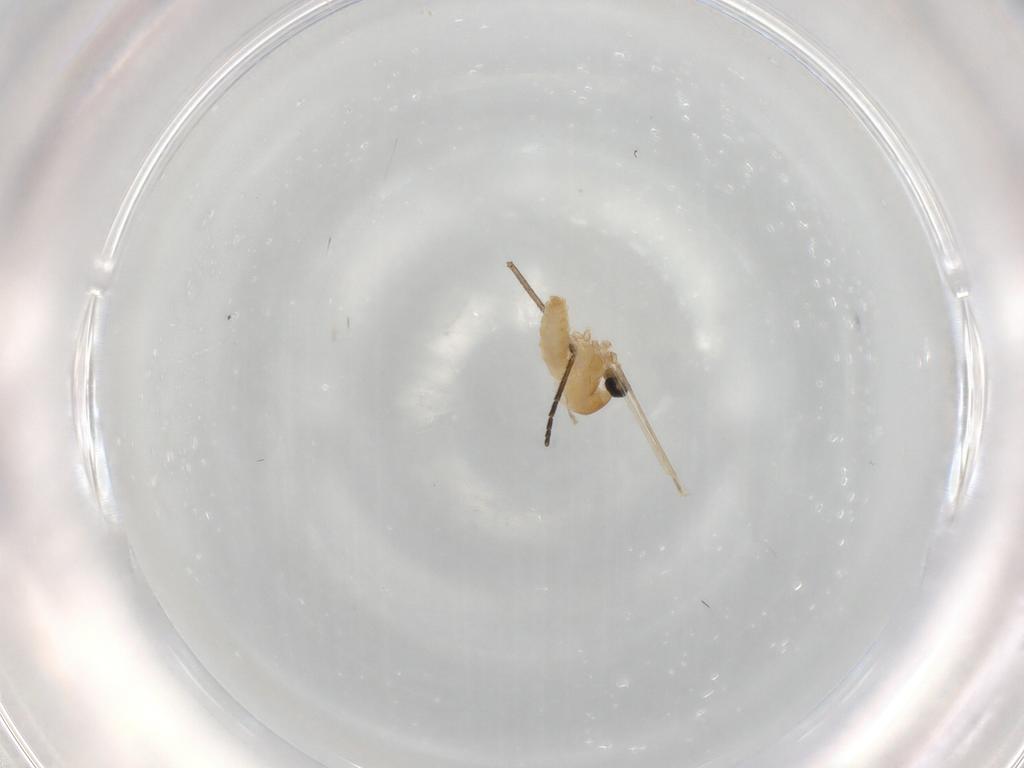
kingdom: Animalia
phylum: Arthropoda
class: Insecta
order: Diptera
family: Cecidomyiidae
